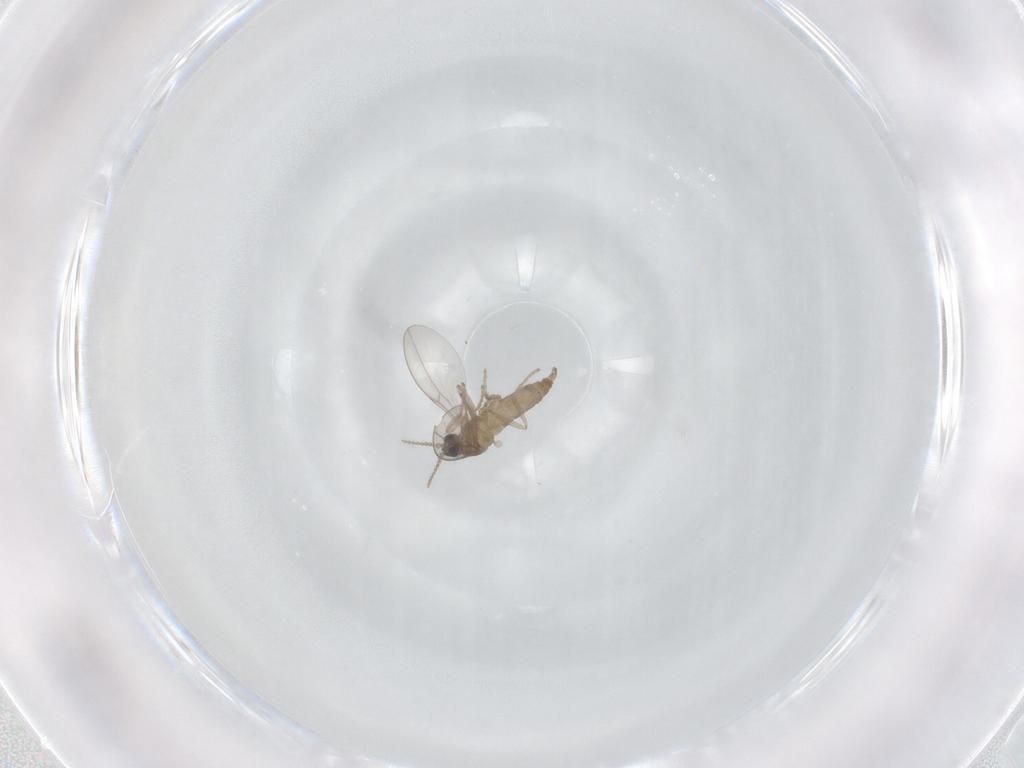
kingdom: Animalia
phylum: Arthropoda
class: Insecta
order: Diptera
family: Cecidomyiidae
